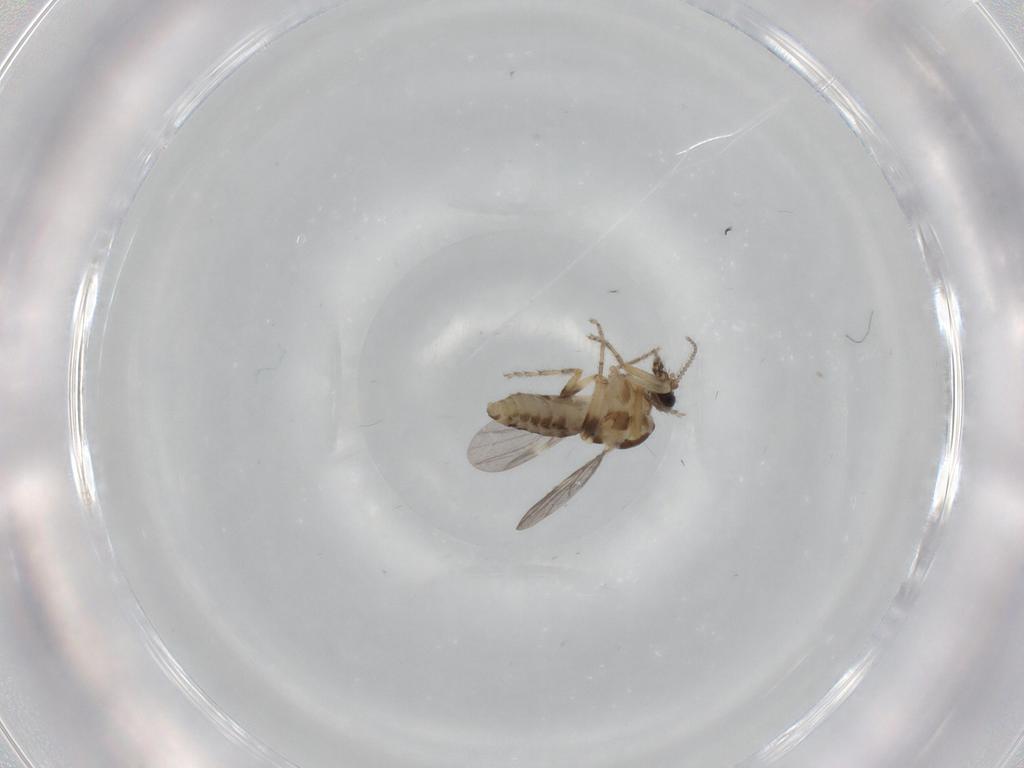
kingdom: Animalia
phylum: Arthropoda
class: Insecta
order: Diptera
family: Ceratopogonidae
